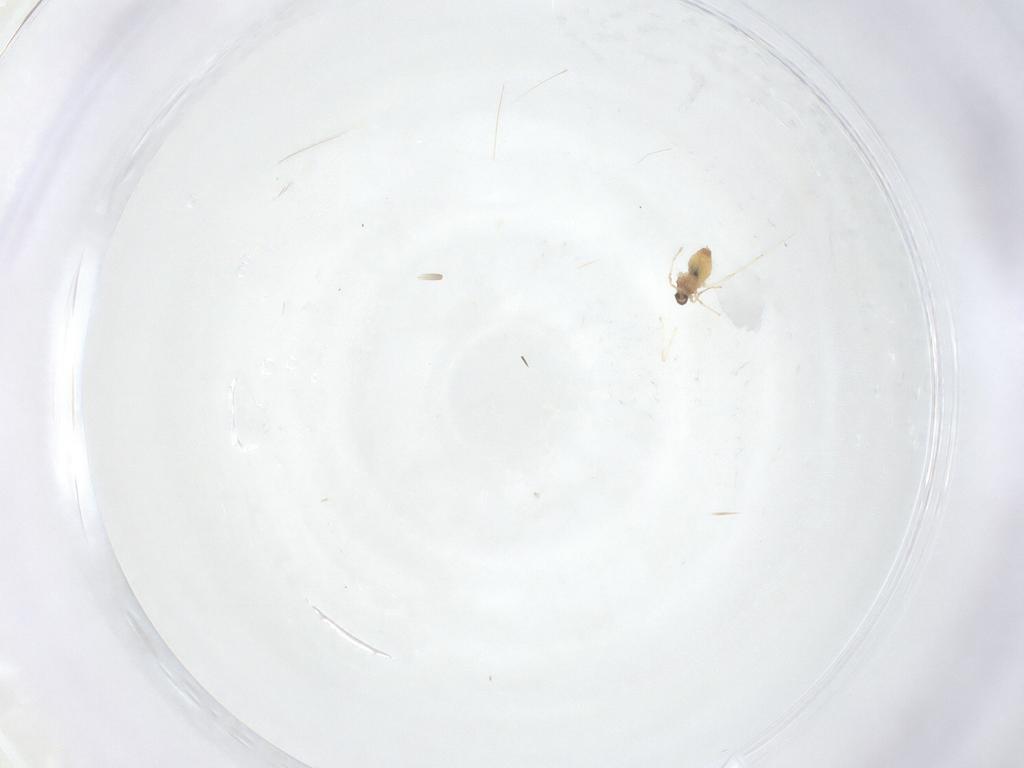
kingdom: Animalia
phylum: Arthropoda
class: Insecta
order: Diptera
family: Cecidomyiidae
